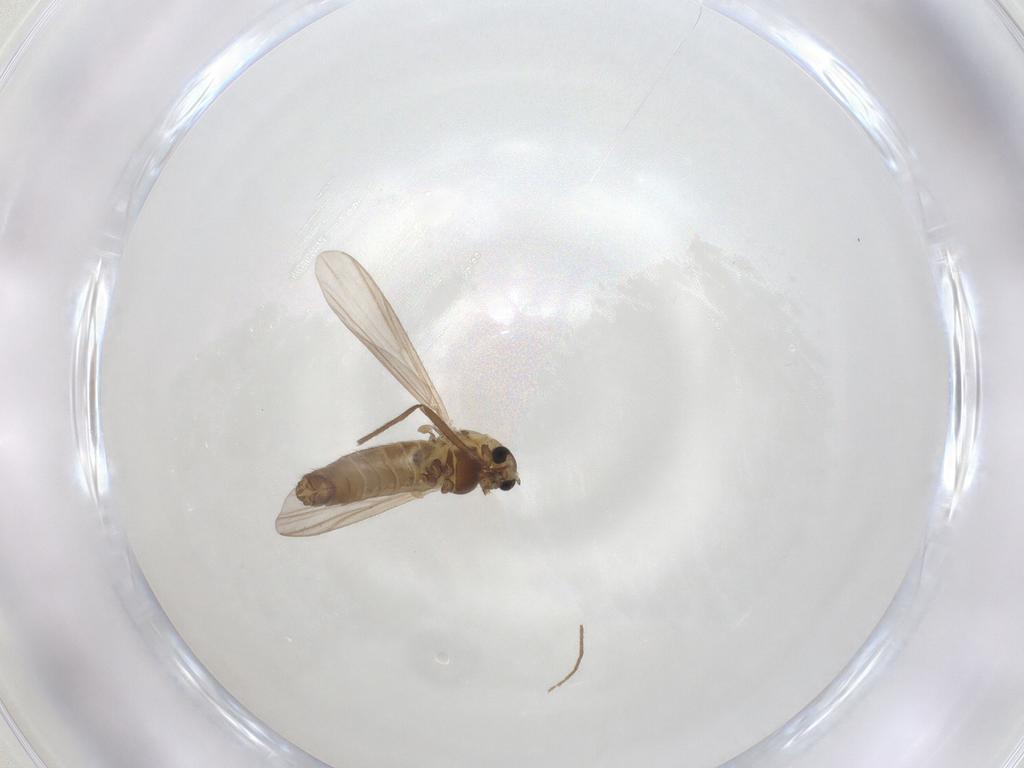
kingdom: Animalia
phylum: Arthropoda
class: Insecta
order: Diptera
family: Chironomidae
